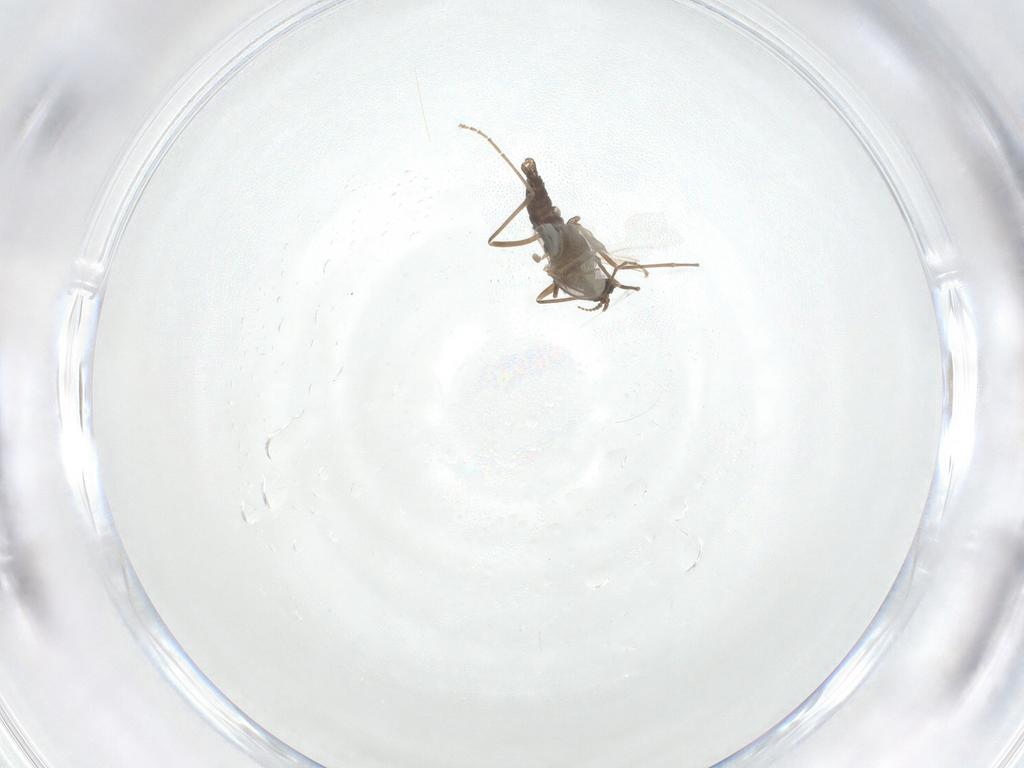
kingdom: Animalia
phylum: Arthropoda
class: Insecta
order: Diptera
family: Cecidomyiidae
